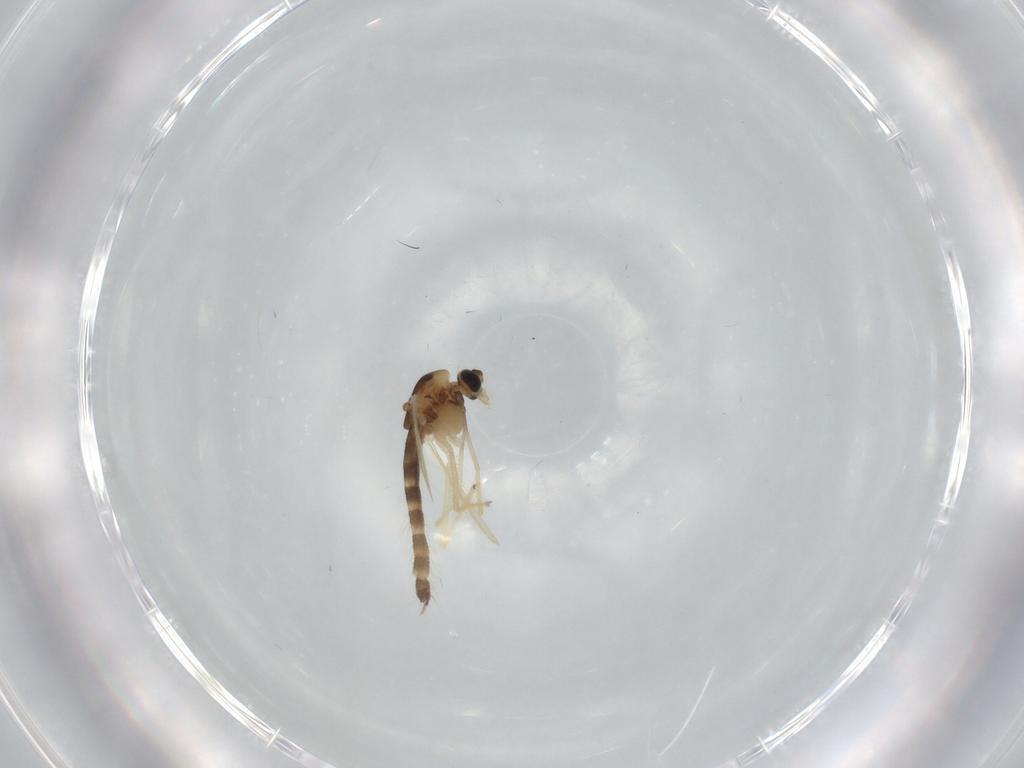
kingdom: Animalia
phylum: Arthropoda
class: Insecta
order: Diptera
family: Chironomidae
